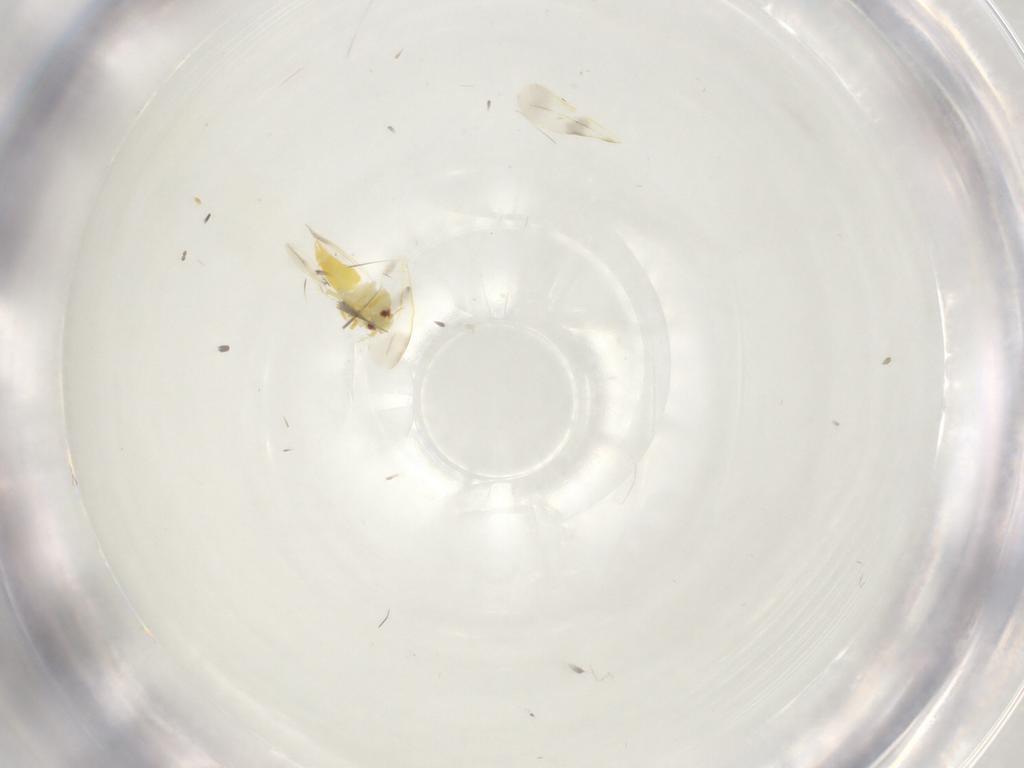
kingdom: Animalia
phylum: Arthropoda
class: Insecta
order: Hemiptera
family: Aleyrodidae
